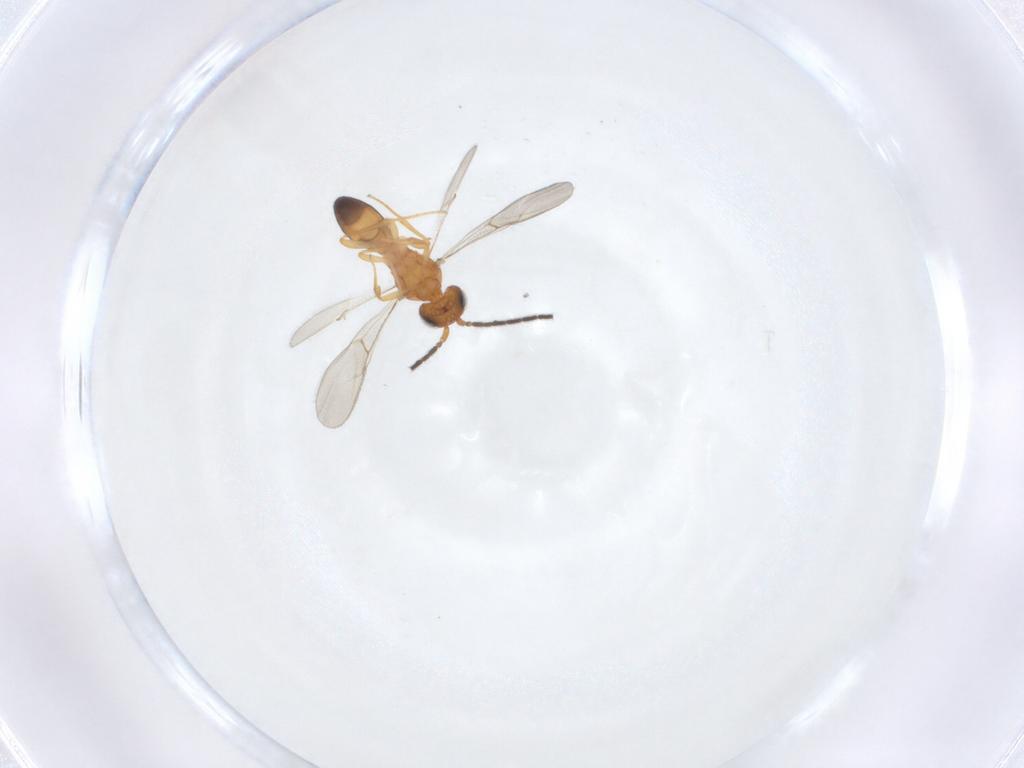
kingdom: Animalia
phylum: Arthropoda
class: Insecta
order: Hymenoptera
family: Scelionidae
